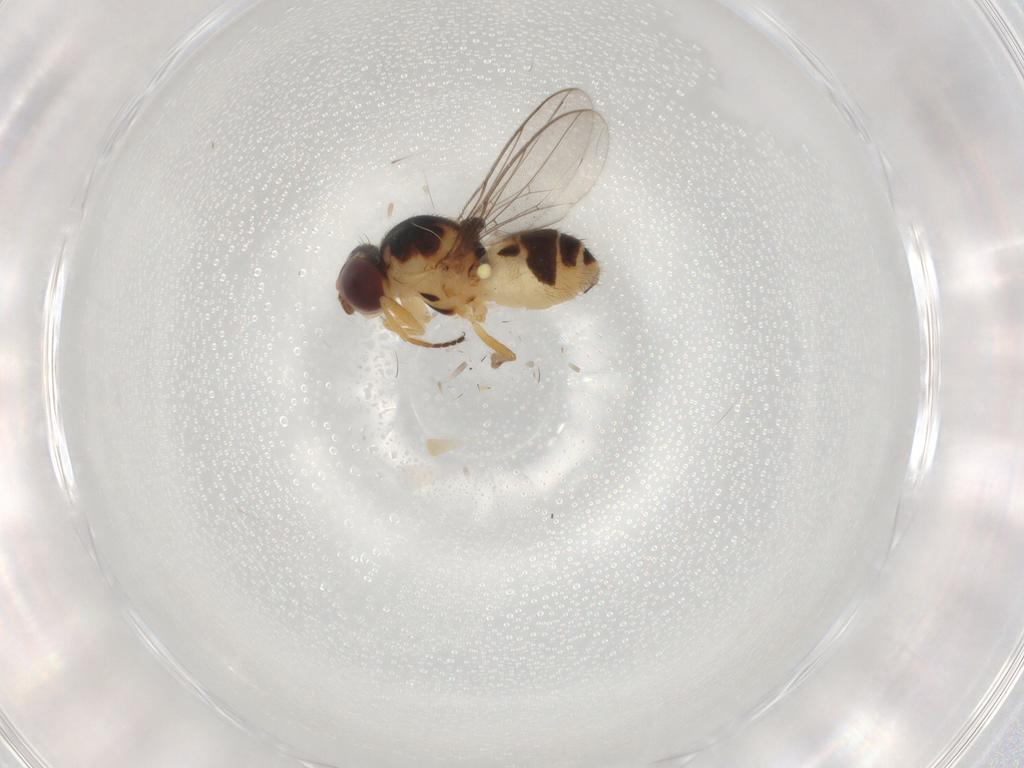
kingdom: Animalia
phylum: Arthropoda
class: Insecta
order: Diptera
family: Chloropidae
